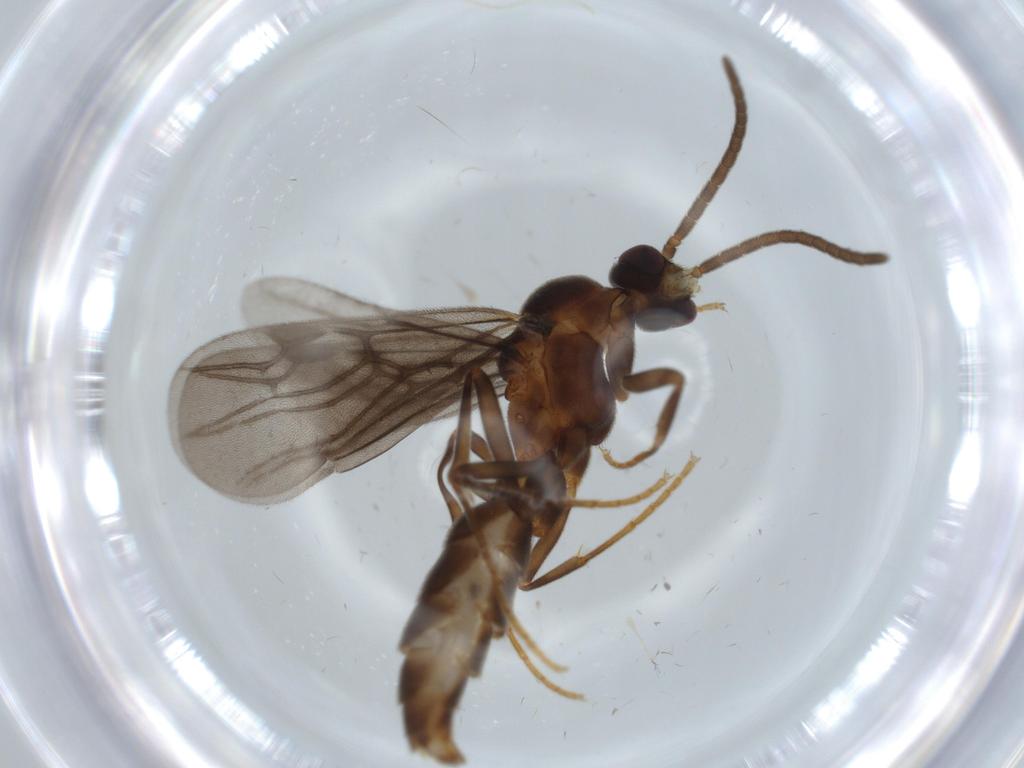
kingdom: Animalia
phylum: Arthropoda
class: Insecta
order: Hymenoptera
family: Formicidae
